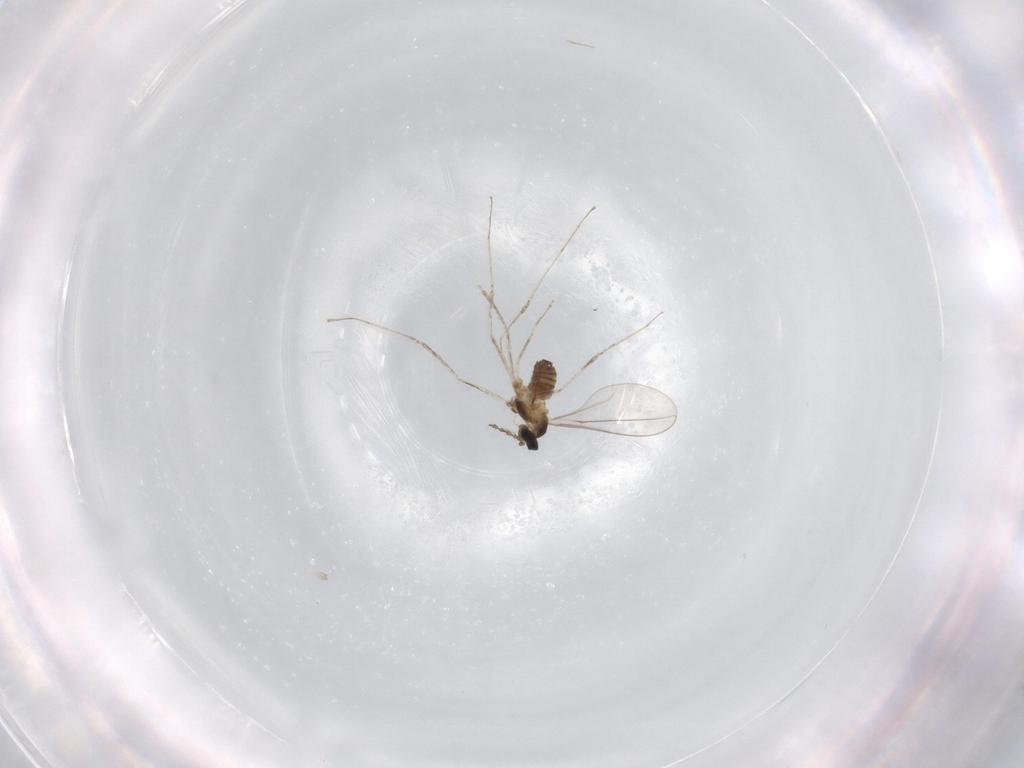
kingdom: Animalia
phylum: Arthropoda
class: Insecta
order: Diptera
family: Cecidomyiidae
